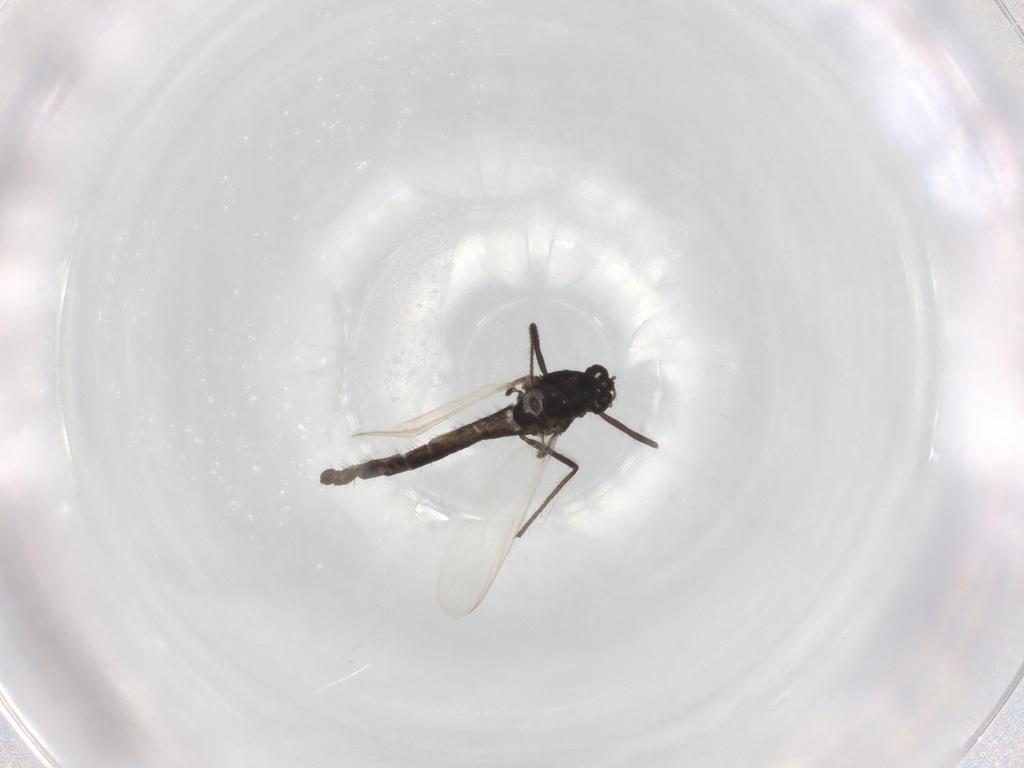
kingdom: Animalia
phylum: Arthropoda
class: Insecta
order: Diptera
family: Chironomidae
